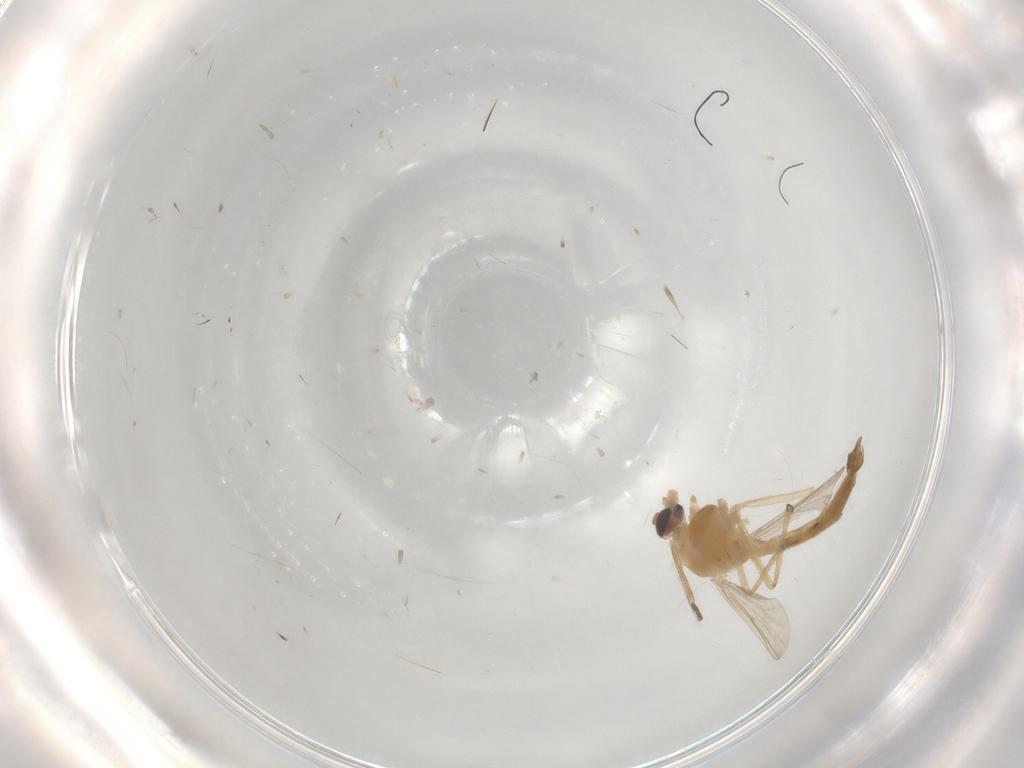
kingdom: Animalia
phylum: Arthropoda
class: Insecta
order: Diptera
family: Chironomidae
